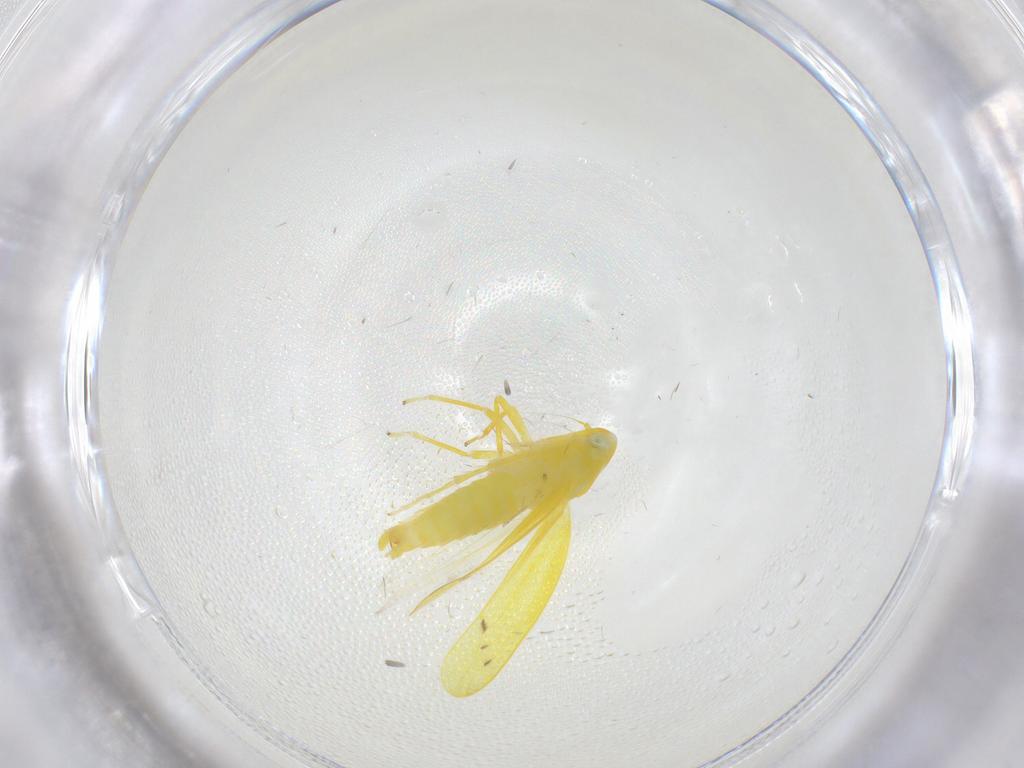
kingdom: Animalia
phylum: Arthropoda
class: Insecta
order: Hemiptera
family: Cicadellidae
